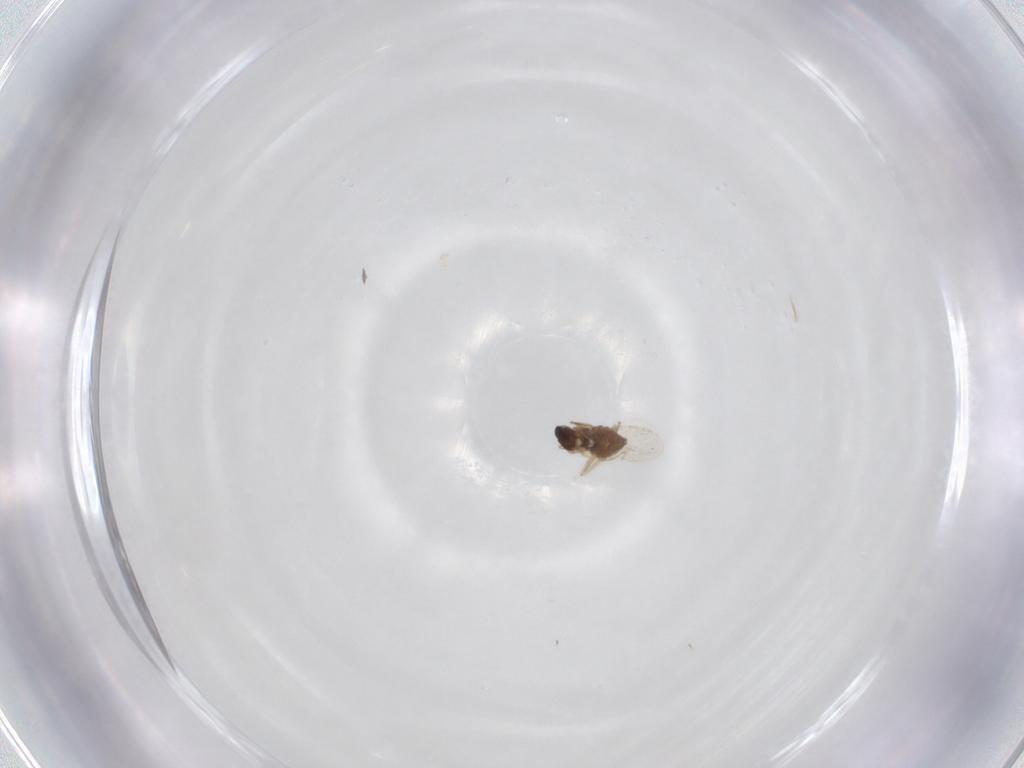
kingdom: Animalia
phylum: Arthropoda
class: Insecta
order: Diptera
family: Cecidomyiidae
